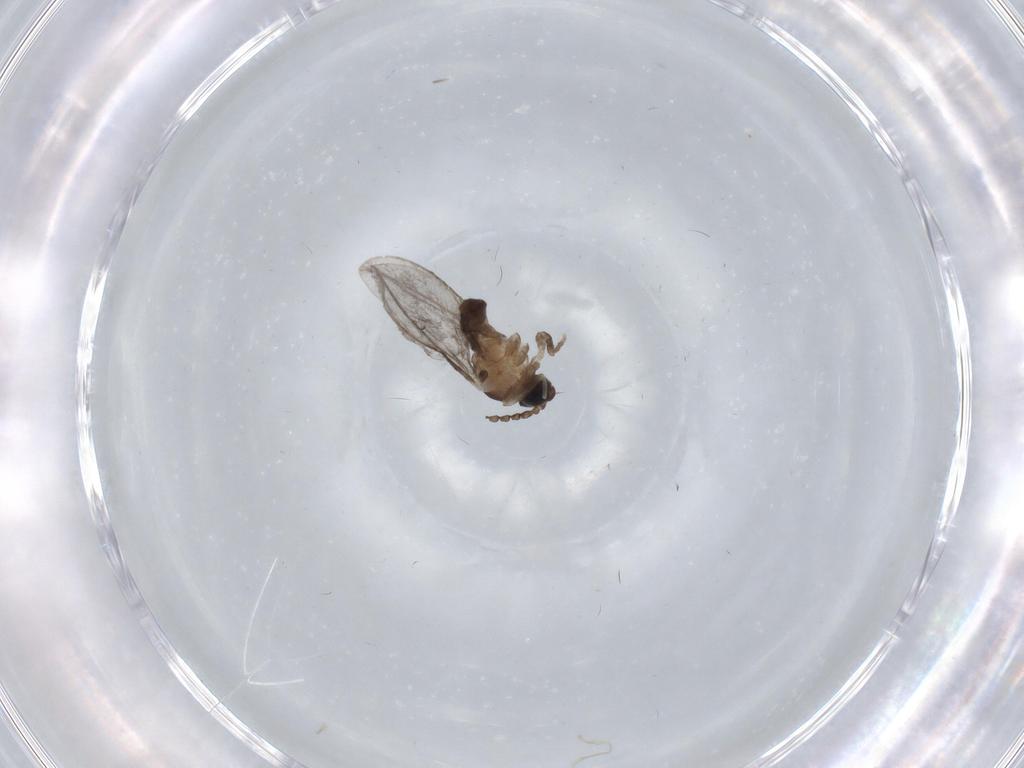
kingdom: Animalia
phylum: Arthropoda
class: Insecta
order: Diptera
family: Cecidomyiidae
